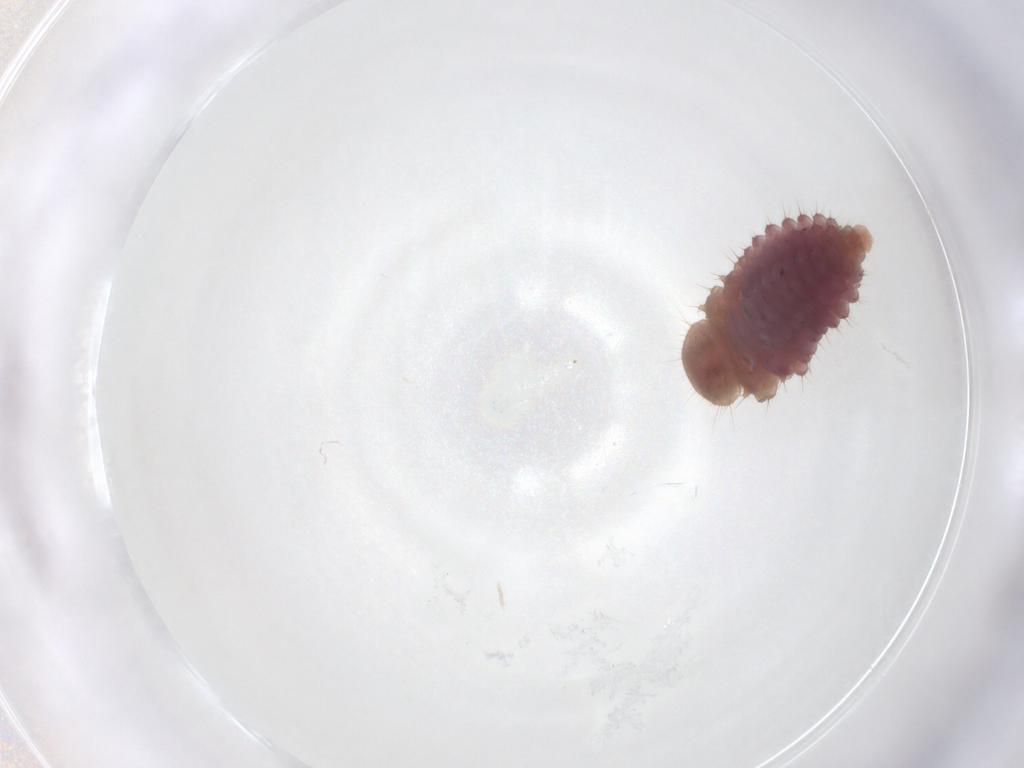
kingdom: Animalia
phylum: Arthropoda
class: Insecta
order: Coleoptera
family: Coccinellidae
